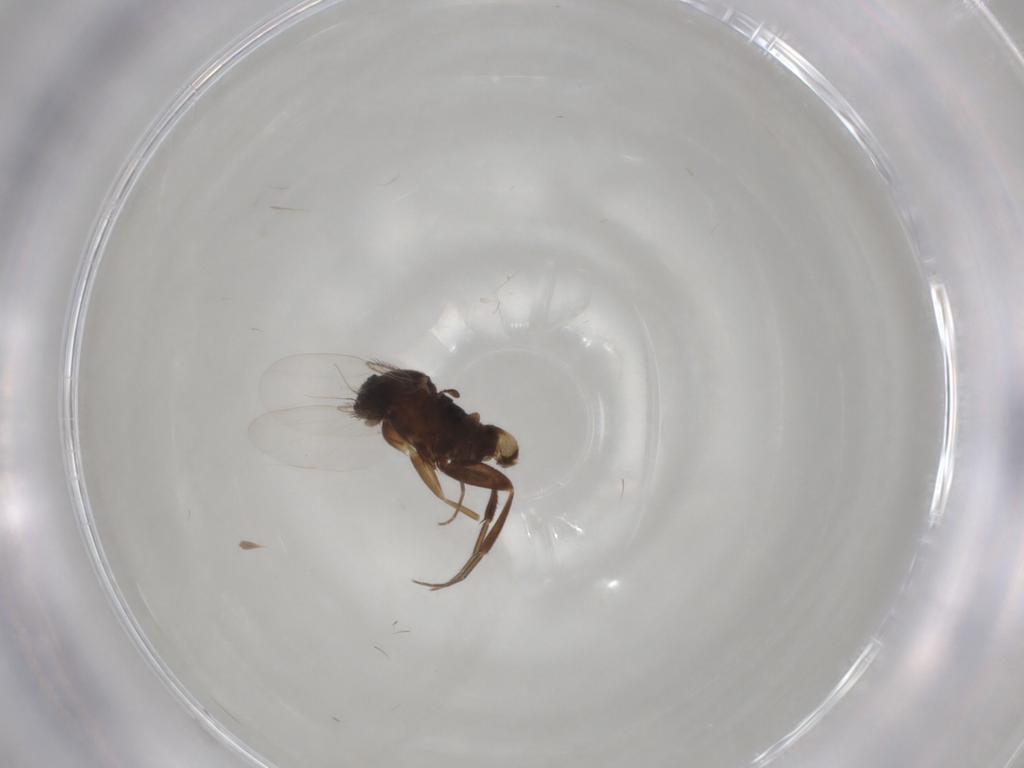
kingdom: Animalia
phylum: Arthropoda
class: Insecta
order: Diptera
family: Phoridae
